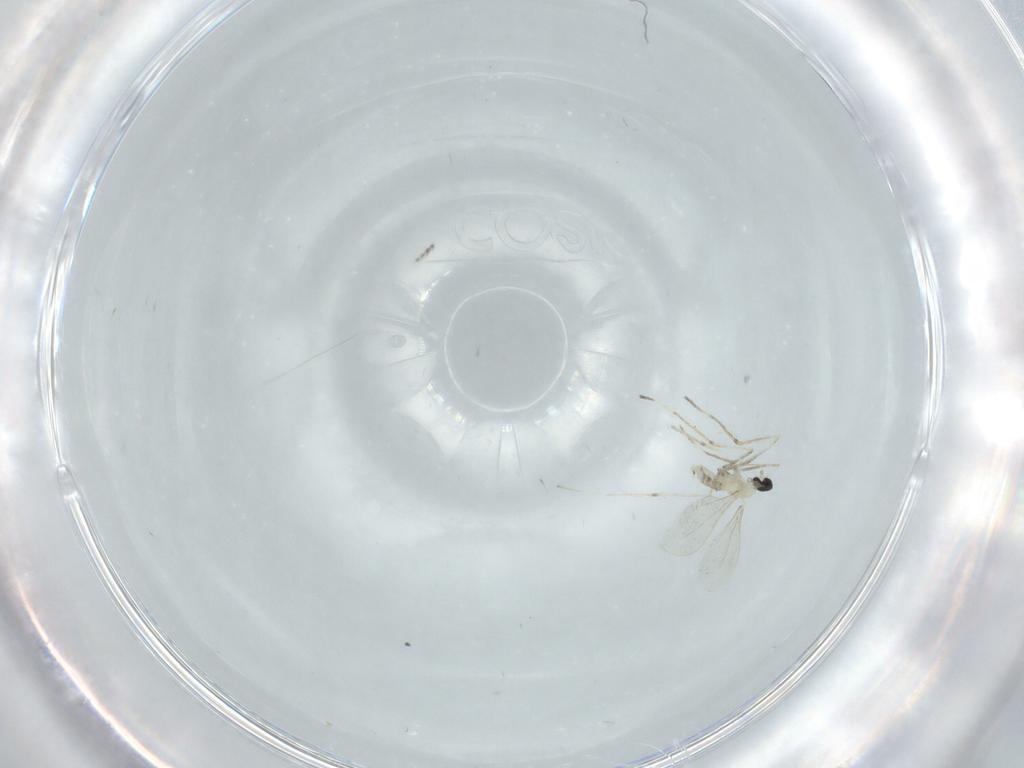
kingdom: Animalia
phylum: Arthropoda
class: Insecta
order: Diptera
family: Cecidomyiidae
